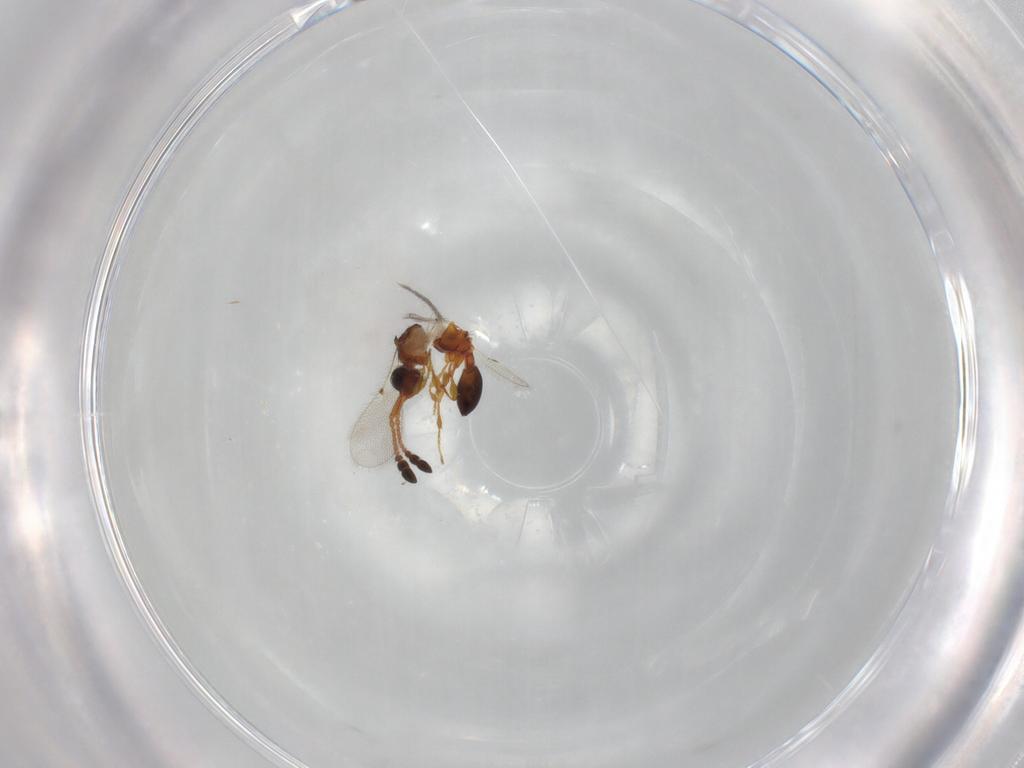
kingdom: Animalia
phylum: Arthropoda
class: Insecta
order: Hymenoptera
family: Diapriidae
